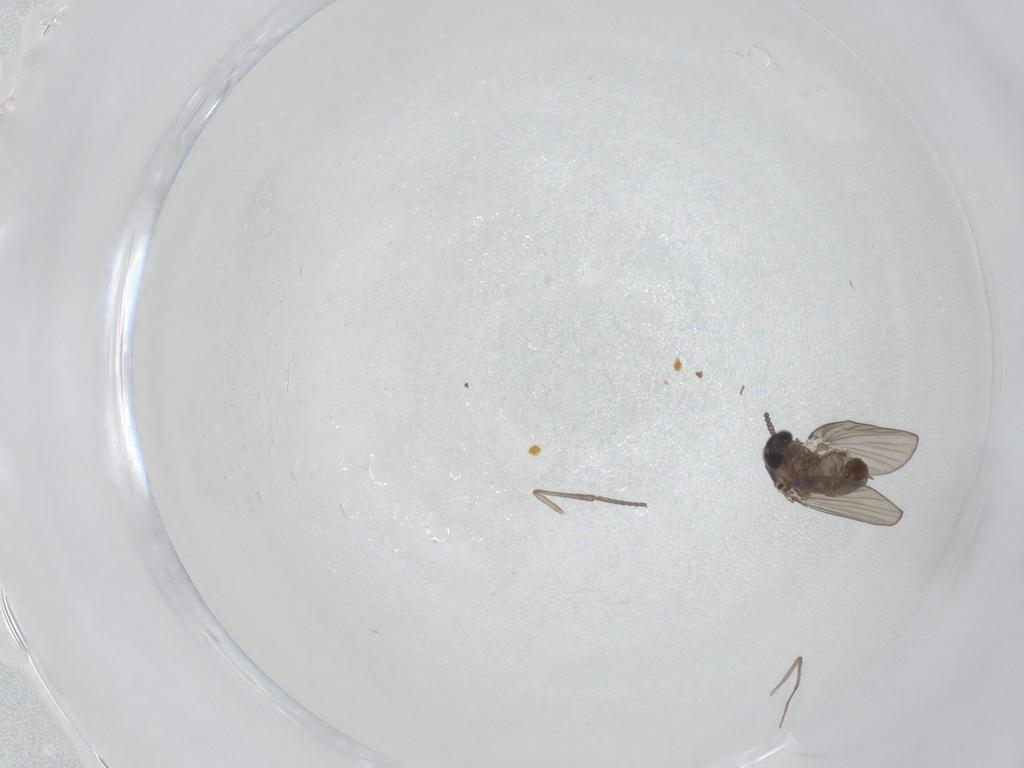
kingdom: Animalia
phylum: Arthropoda
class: Insecta
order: Diptera
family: Psychodidae
